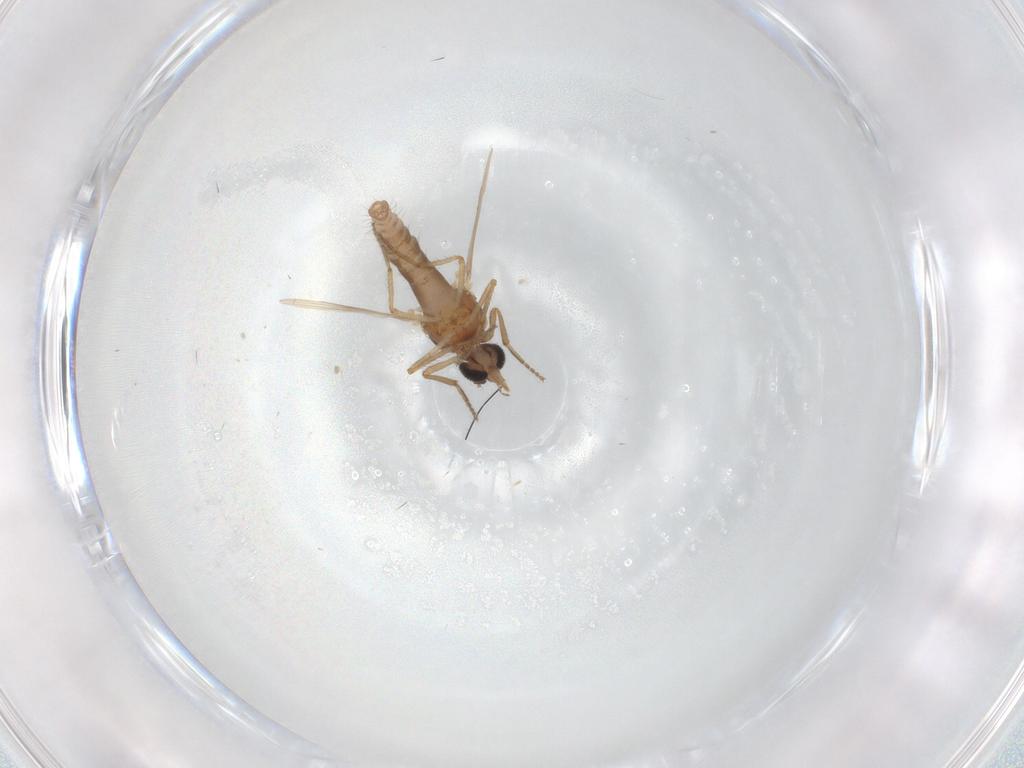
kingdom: Animalia
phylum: Arthropoda
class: Insecta
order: Diptera
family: Ceratopogonidae
